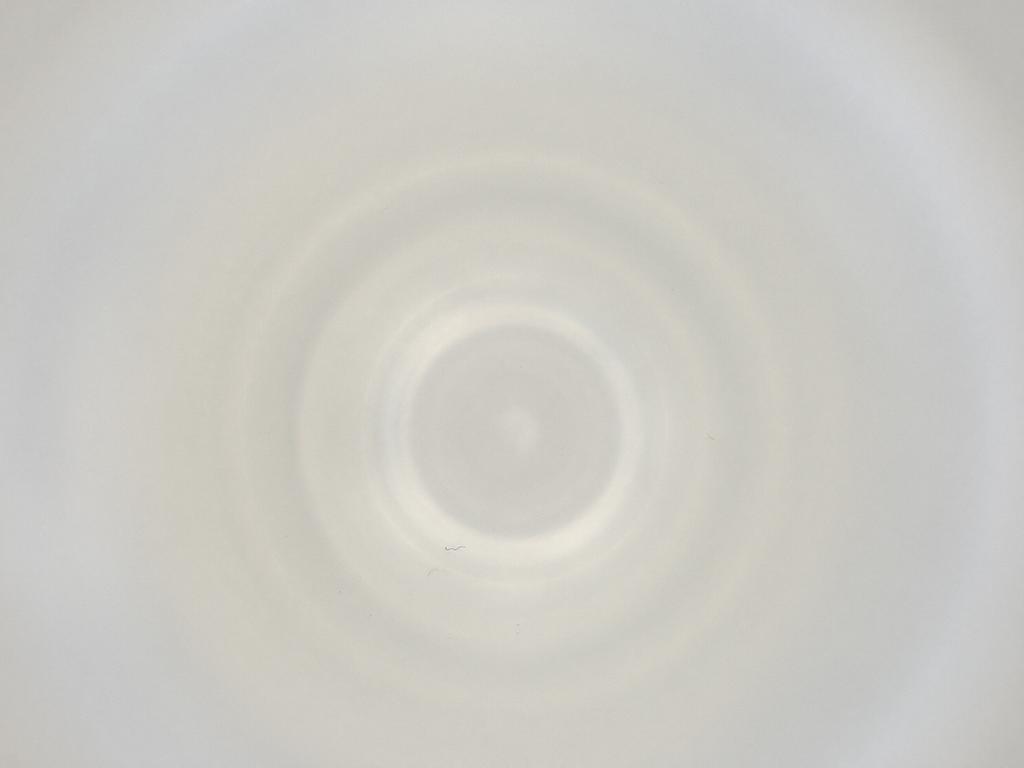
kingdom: Animalia
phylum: Arthropoda
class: Insecta
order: Diptera
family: Cecidomyiidae
